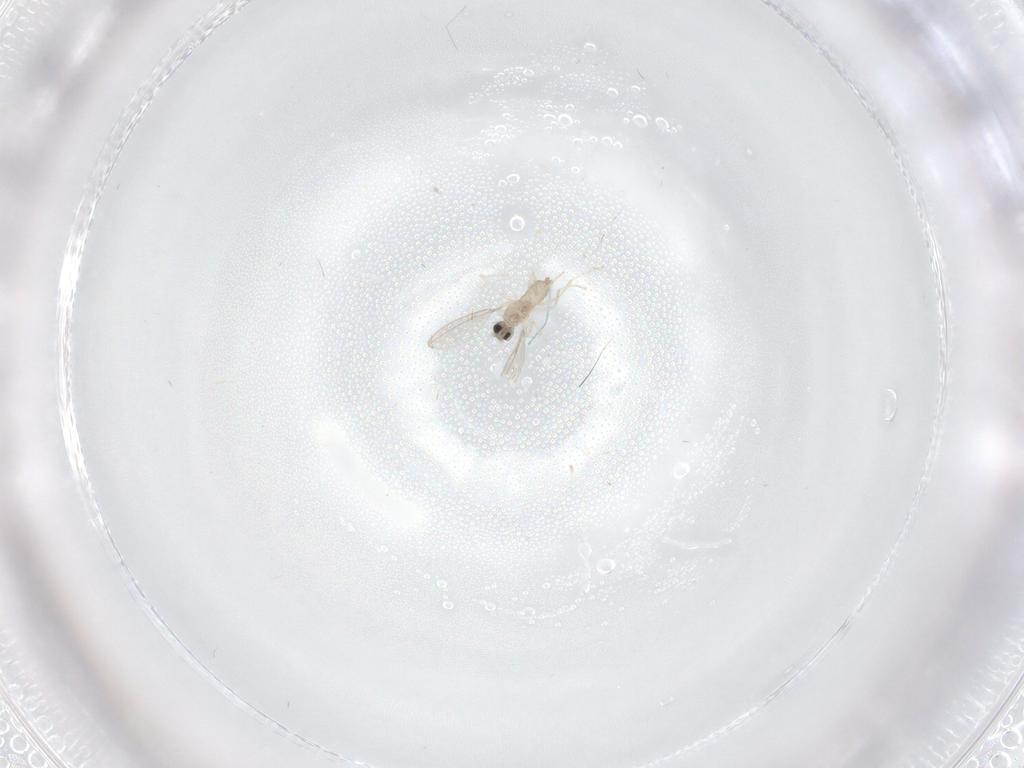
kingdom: Animalia
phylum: Arthropoda
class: Insecta
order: Diptera
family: Cecidomyiidae
